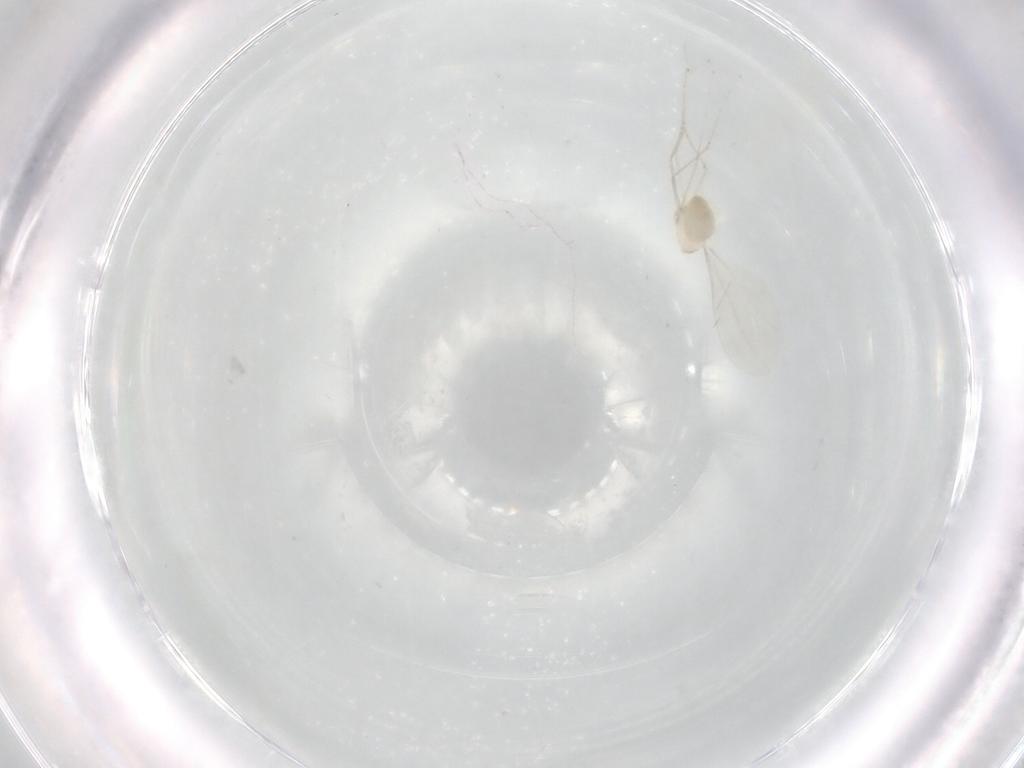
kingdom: Animalia
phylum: Arthropoda
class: Insecta
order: Diptera
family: Cecidomyiidae
